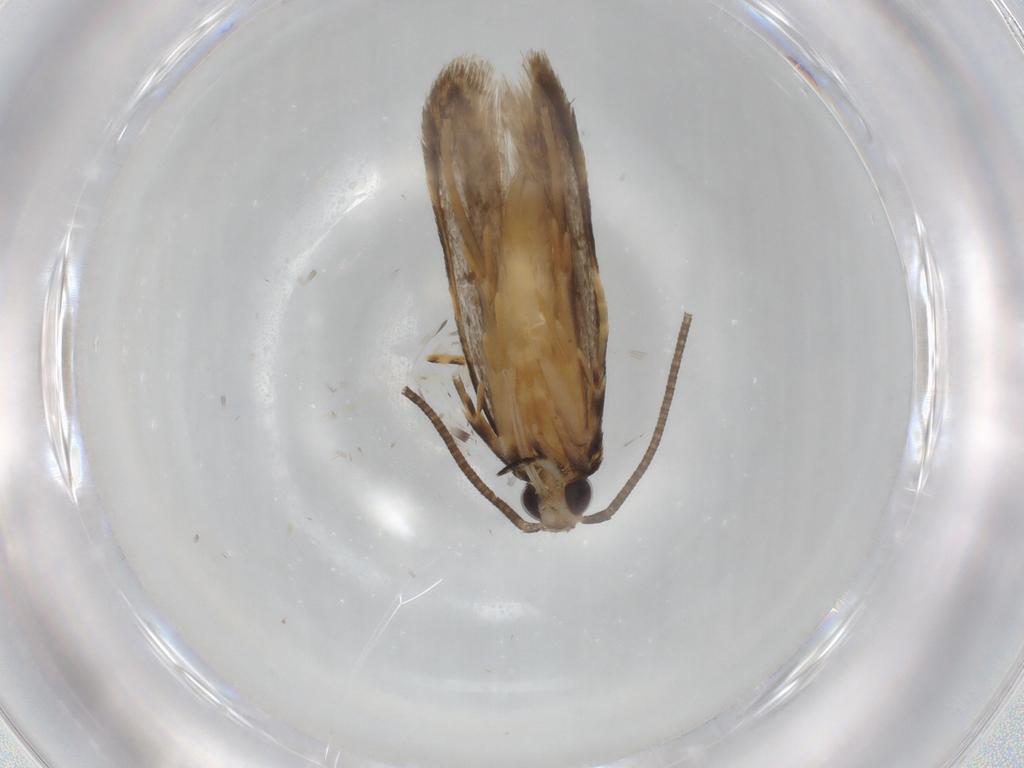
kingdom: Animalia
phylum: Arthropoda
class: Insecta
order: Lepidoptera
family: Autostichidae
